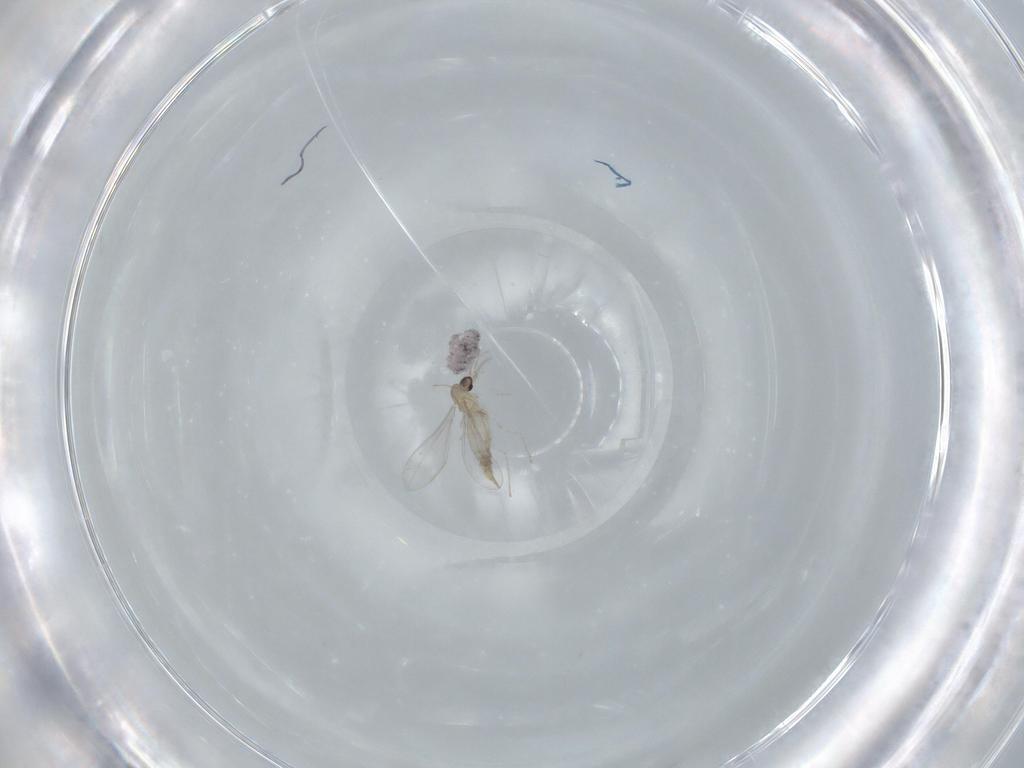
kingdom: Animalia
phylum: Arthropoda
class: Insecta
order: Diptera
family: Cecidomyiidae
